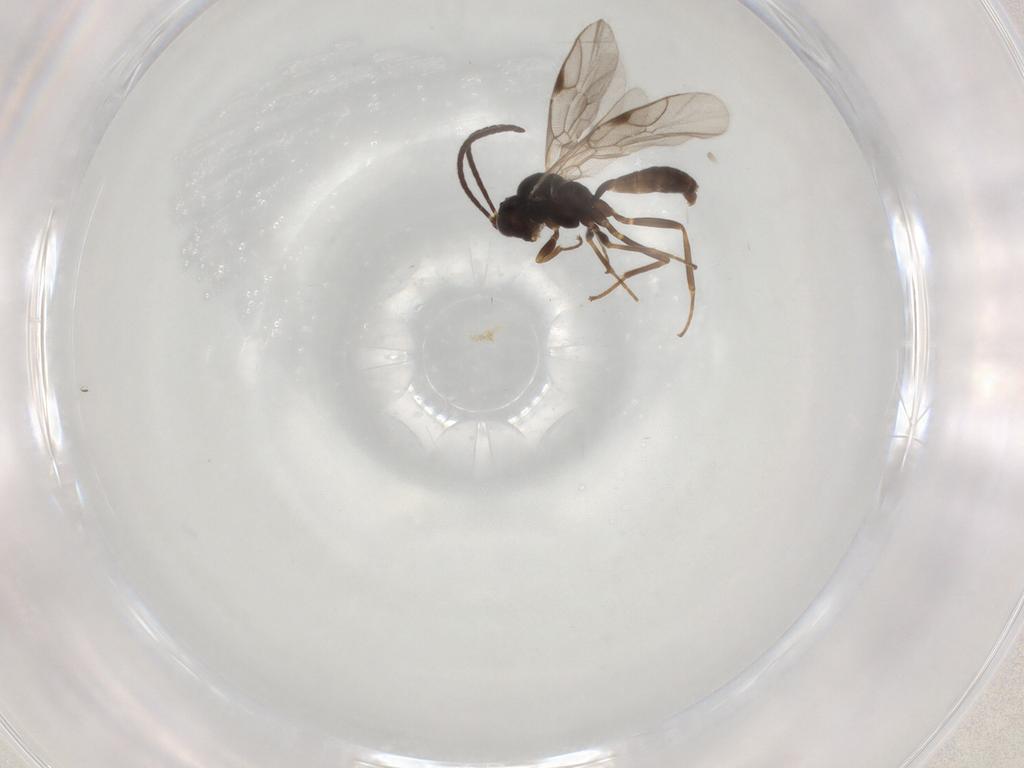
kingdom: Animalia
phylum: Arthropoda
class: Insecta
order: Hymenoptera
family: Ichneumonidae
